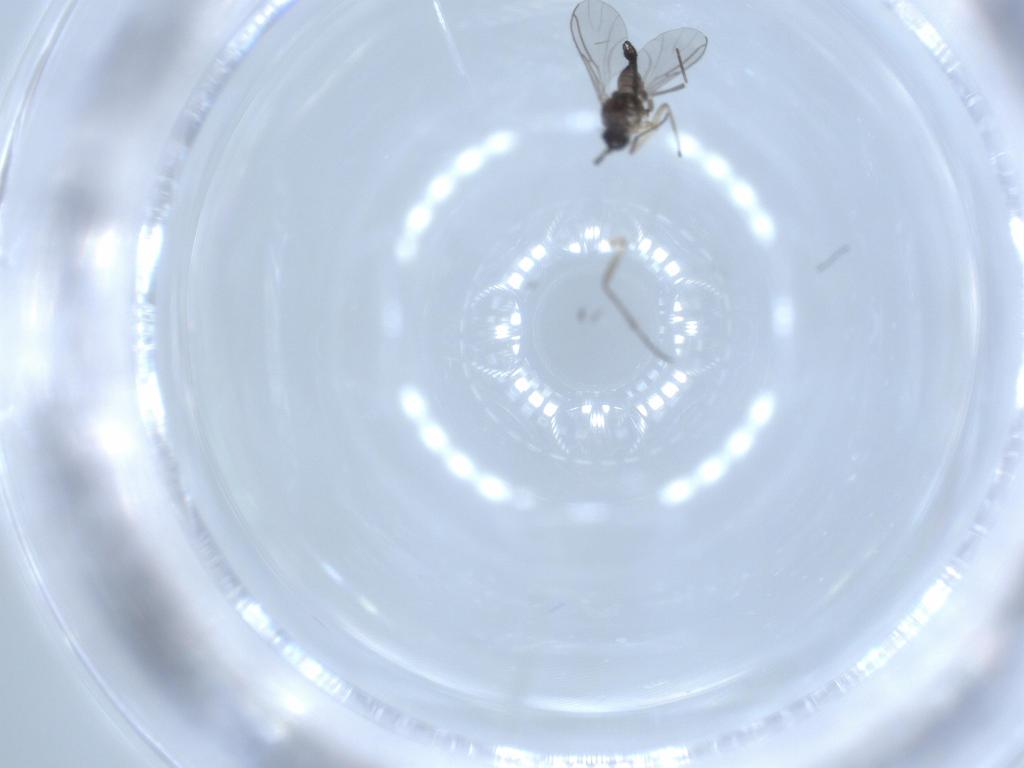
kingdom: Animalia
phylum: Arthropoda
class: Insecta
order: Diptera
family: Sciaridae
